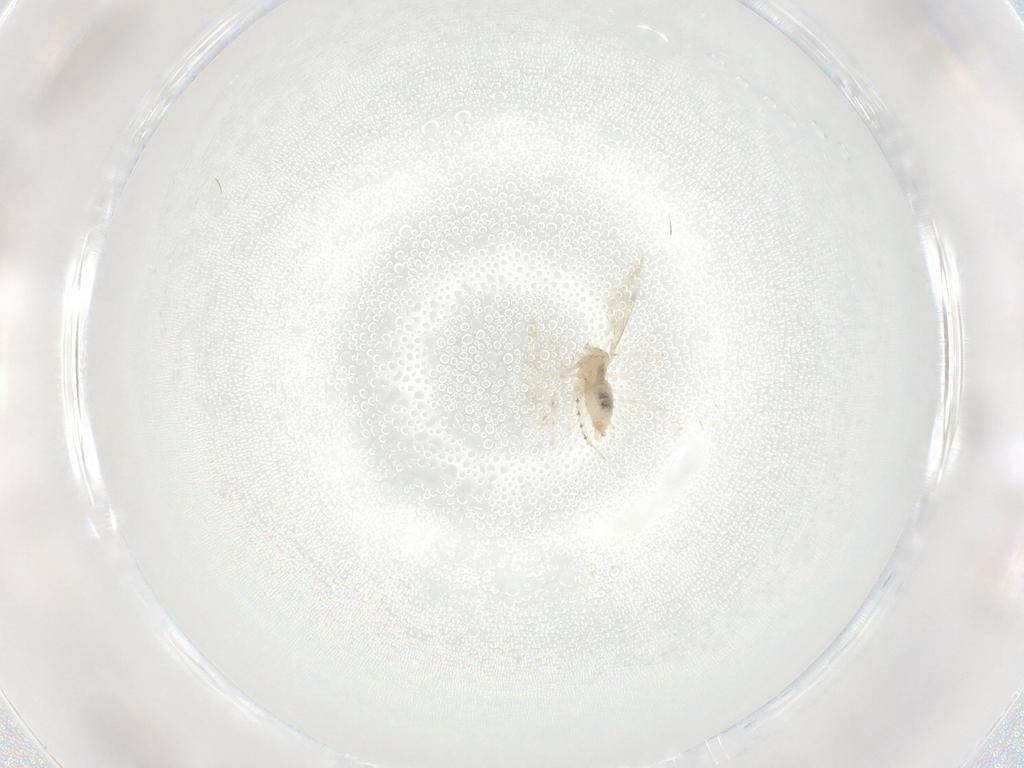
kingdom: Animalia
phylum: Arthropoda
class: Insecta
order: Diptera
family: Cecidomyiidae
